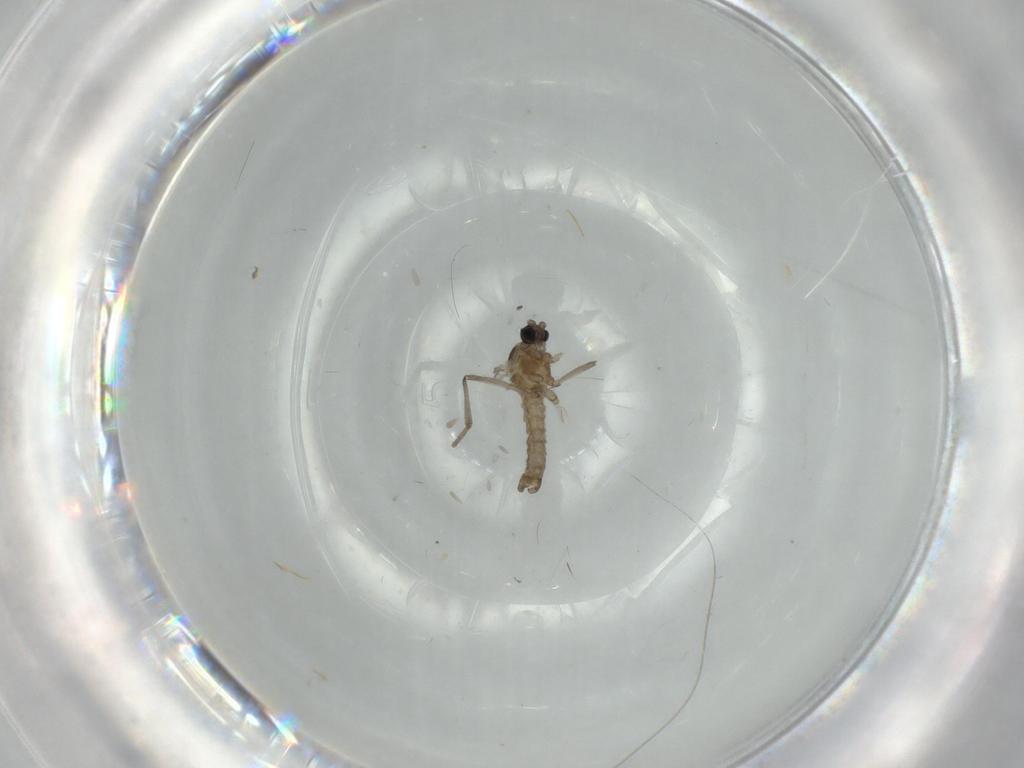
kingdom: Animalia
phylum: Arthropoda
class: Insecta
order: Diptera
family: Cecidomyiidae
